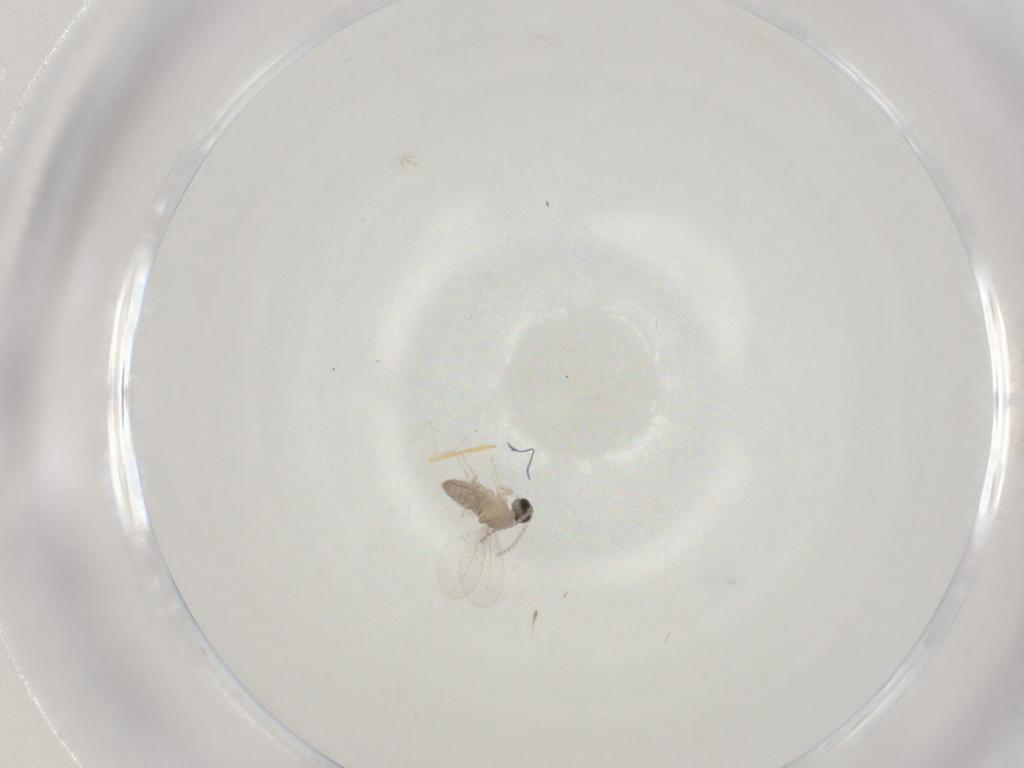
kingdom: Animalia
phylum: Arthropoda
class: Insecta
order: Diptera
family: Cecidomyiidae
